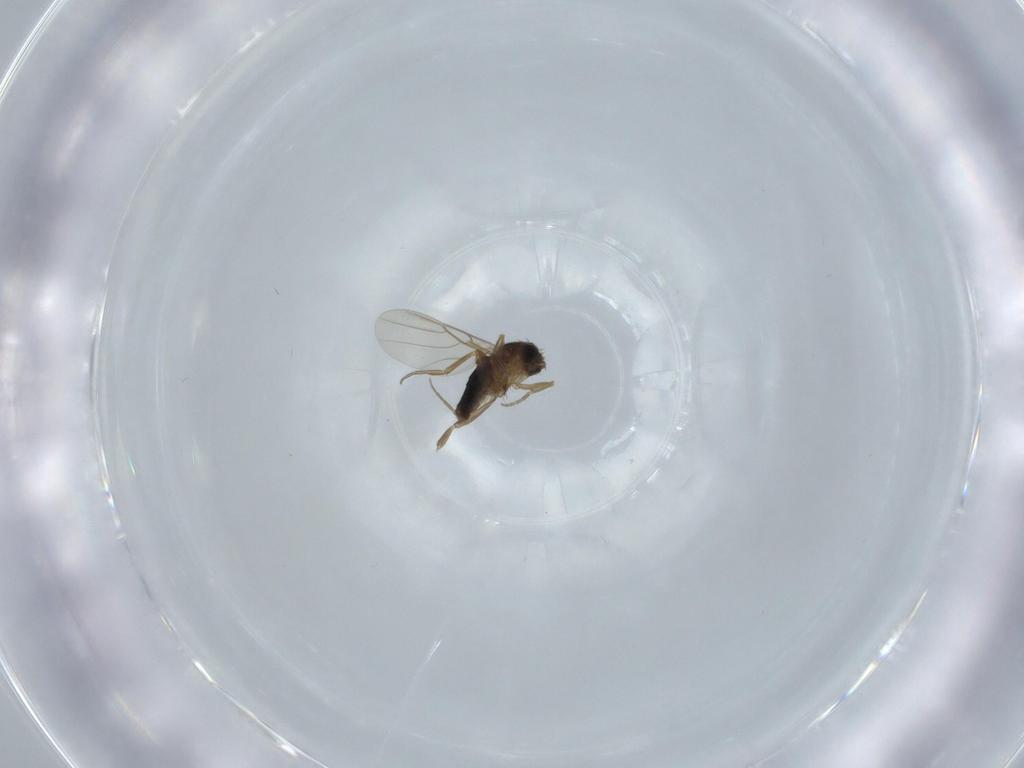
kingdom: Animalia
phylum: Arthropoda
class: Insecta
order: Diptera
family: Phoridae
